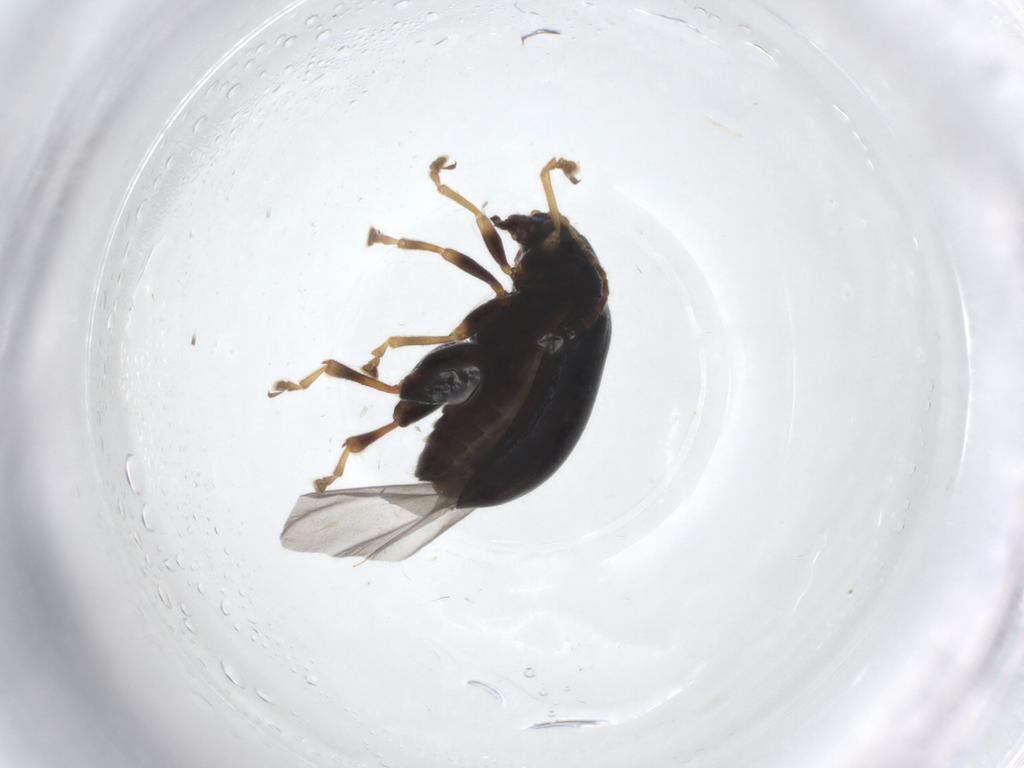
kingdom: Animalia
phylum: Arthropoda
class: Insecta
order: Coleoptera
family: Chrysomelidae
